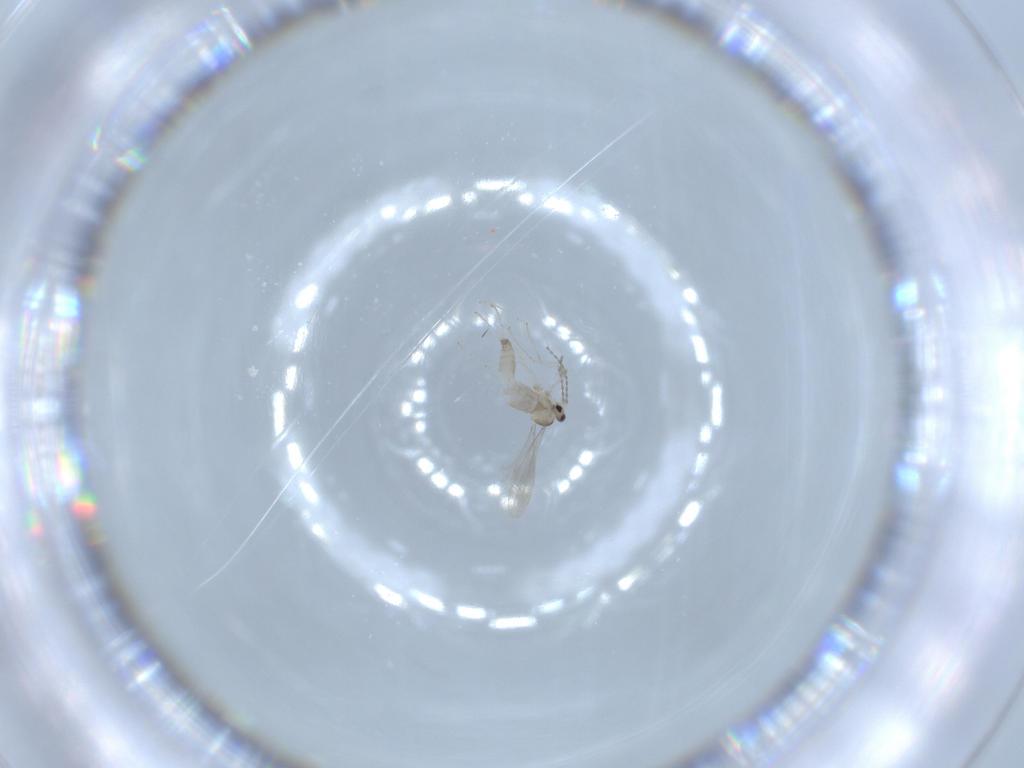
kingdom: Animalia
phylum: Arthropoda
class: Insecta
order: Diptera
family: Cecidomyiidae
